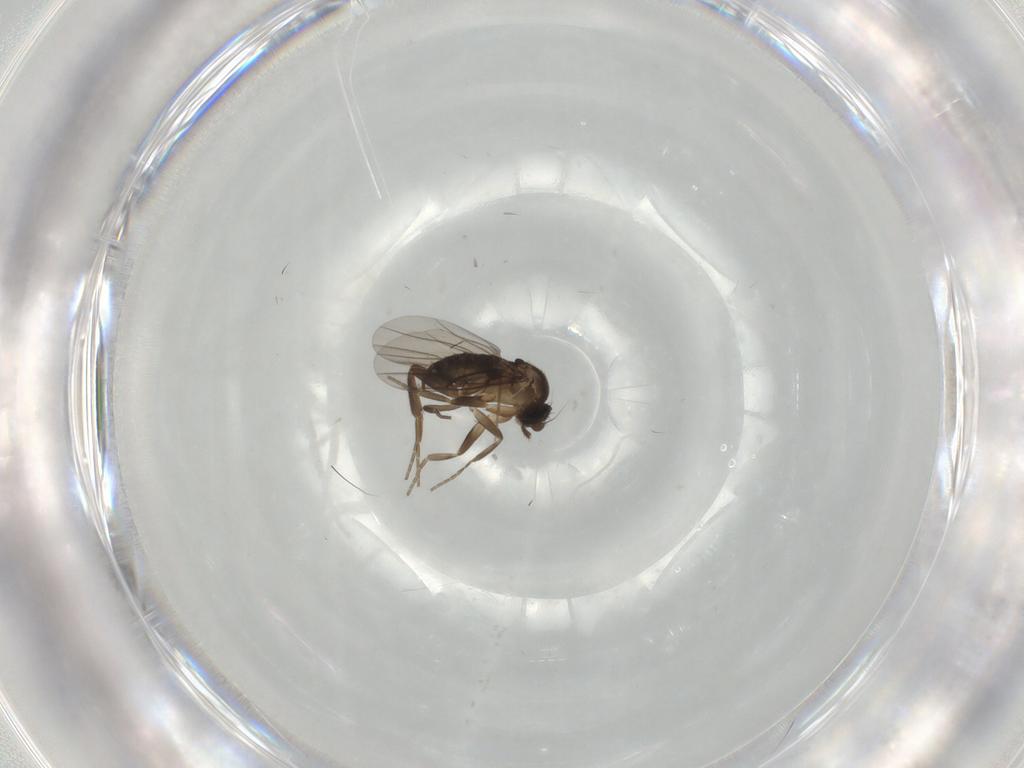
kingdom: Animalia
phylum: Arthropoda
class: Insecta
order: Diptera
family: Phoridae
